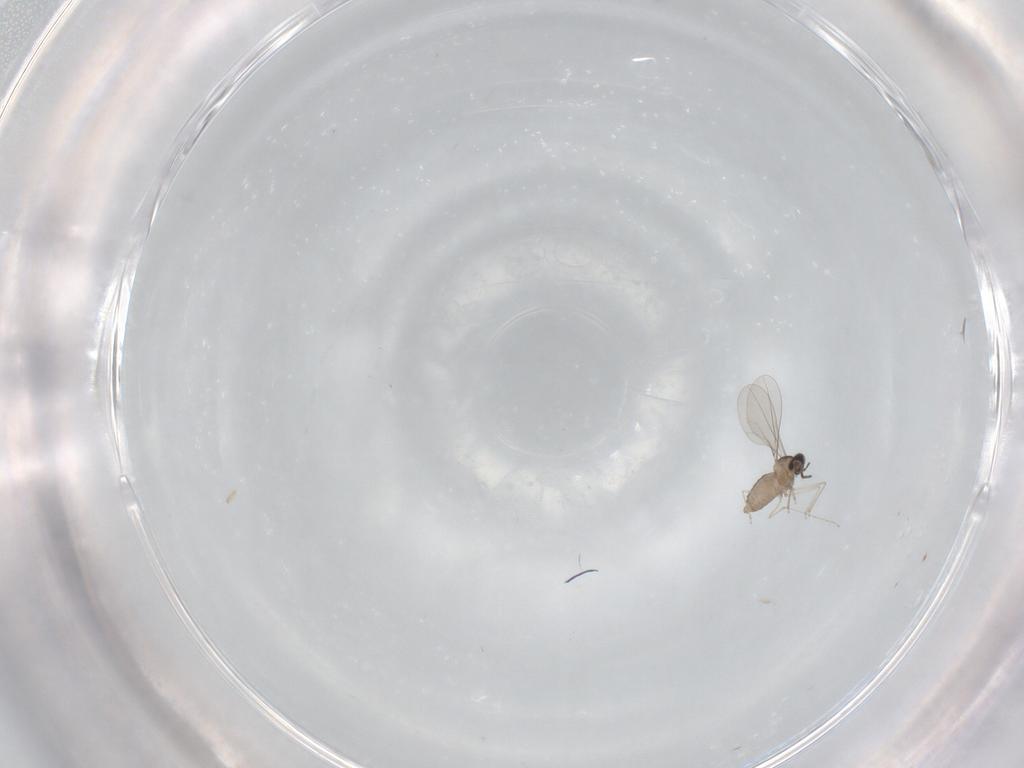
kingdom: Animalia
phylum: Arthropoda
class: Insecta
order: Diptera
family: Cecidomyiidae
